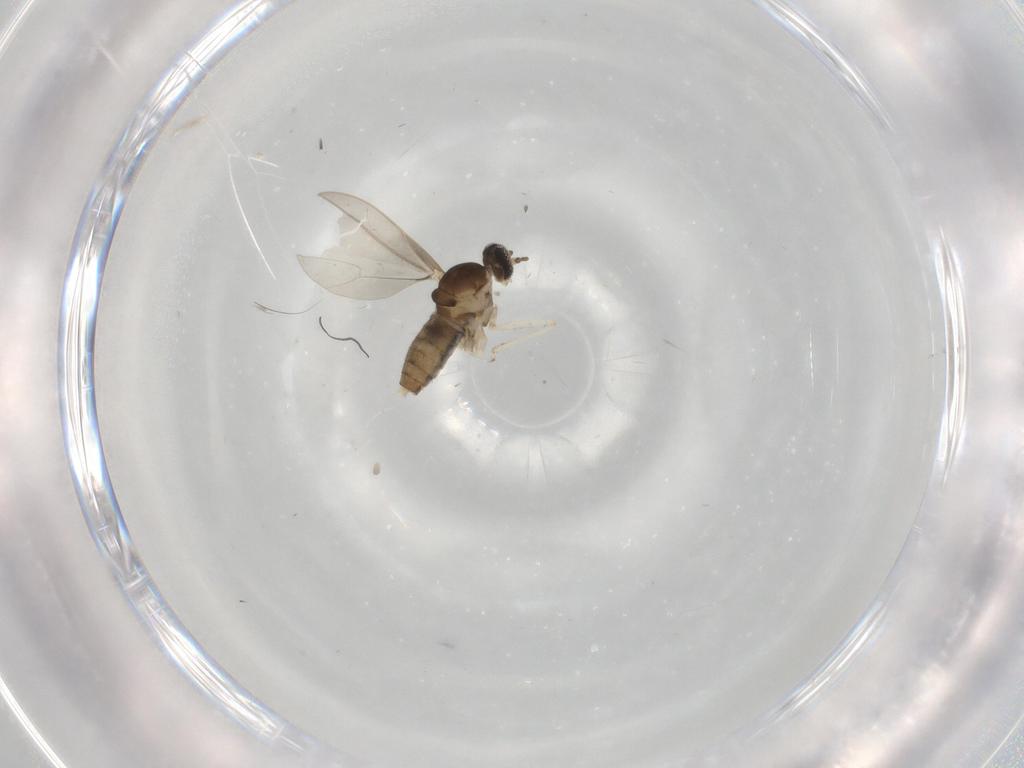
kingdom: Animalia
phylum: Arthropoda
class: Insecta
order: Diptera
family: Cecidomyiidae
